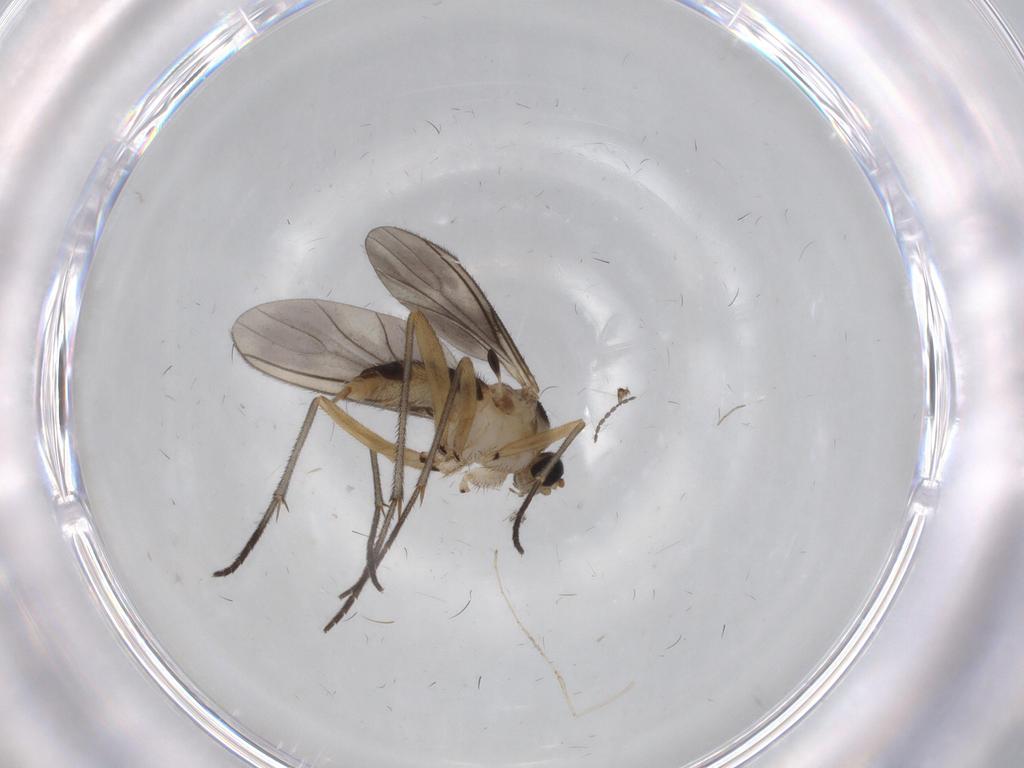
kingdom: Animalia
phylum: Arthropoda
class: Insecta
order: Diptera
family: Sciaridae
